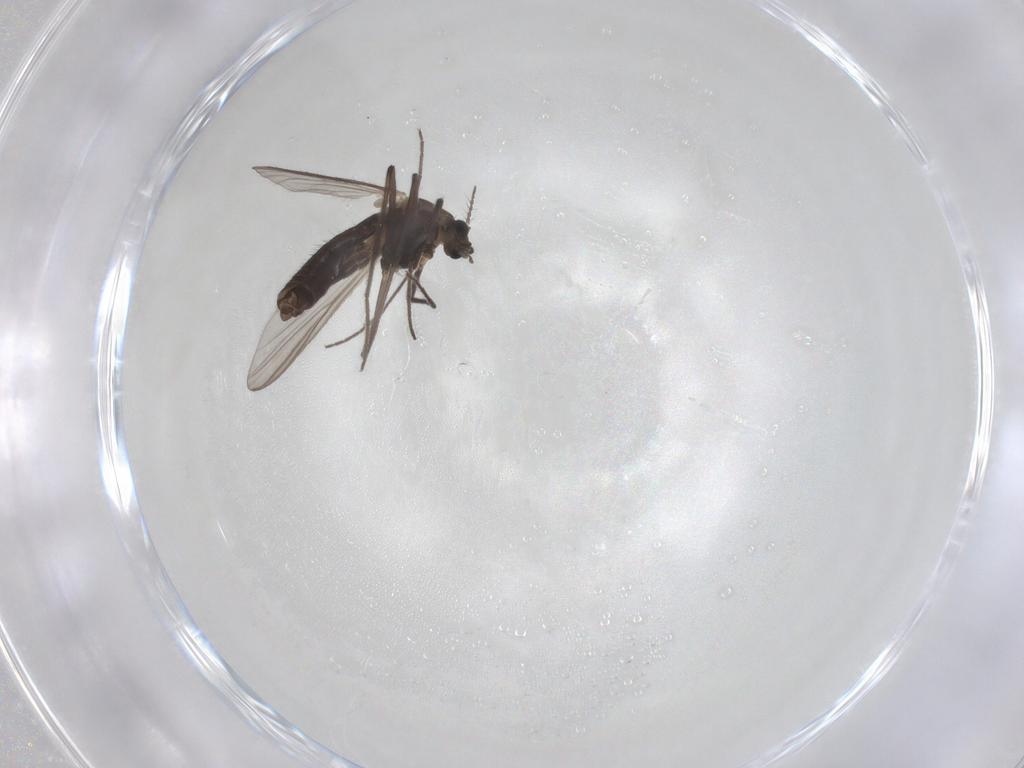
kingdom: Animalia
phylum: Arthropoda
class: Insecta
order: Diptera
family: Chironomidae
